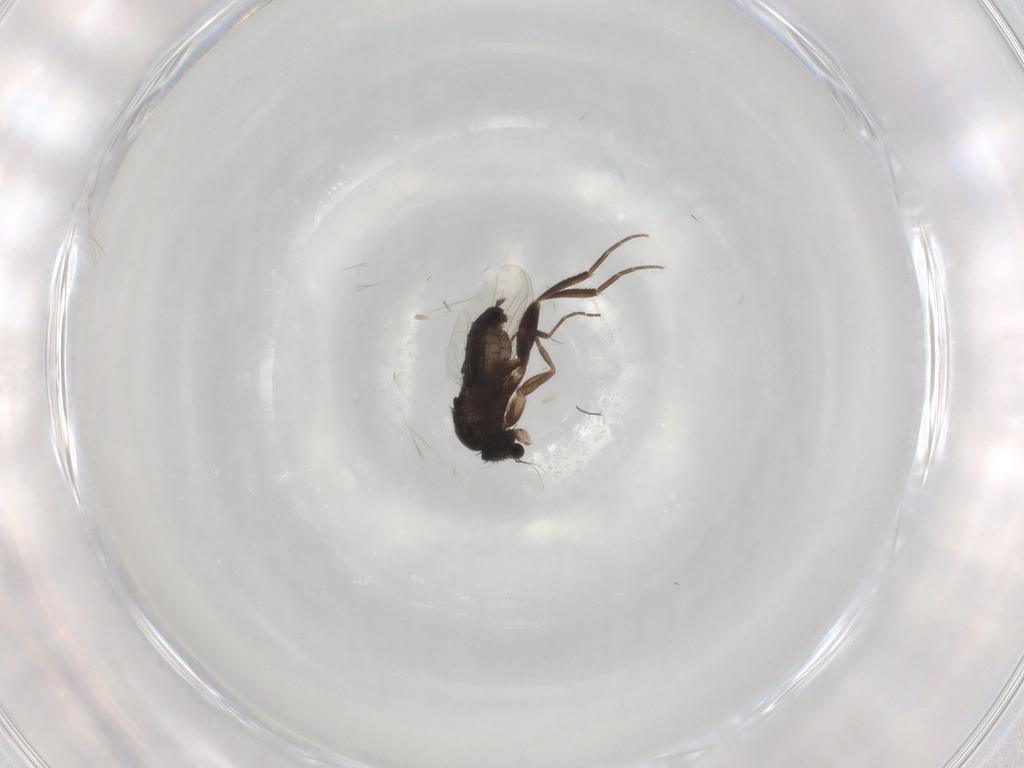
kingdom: Animalia
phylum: Arthropoda
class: Insecta
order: Diptera
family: Phoridae
